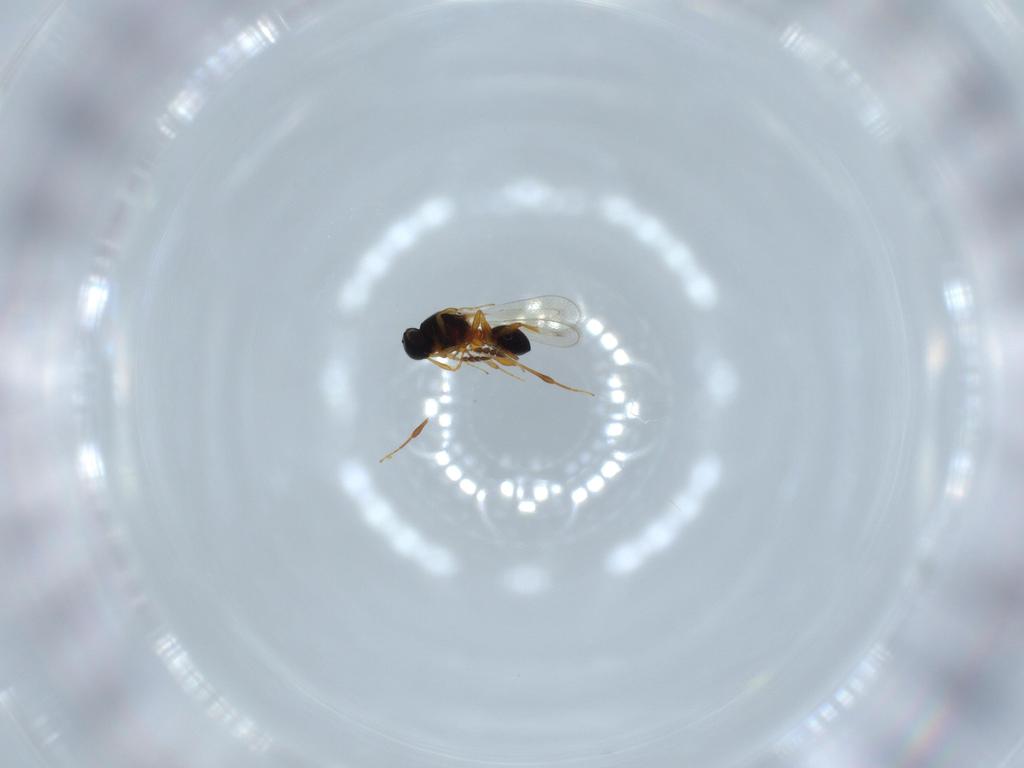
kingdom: Animalia
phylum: Arthropoda
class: Insecta
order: Hymenoptera
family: Platygastridae
